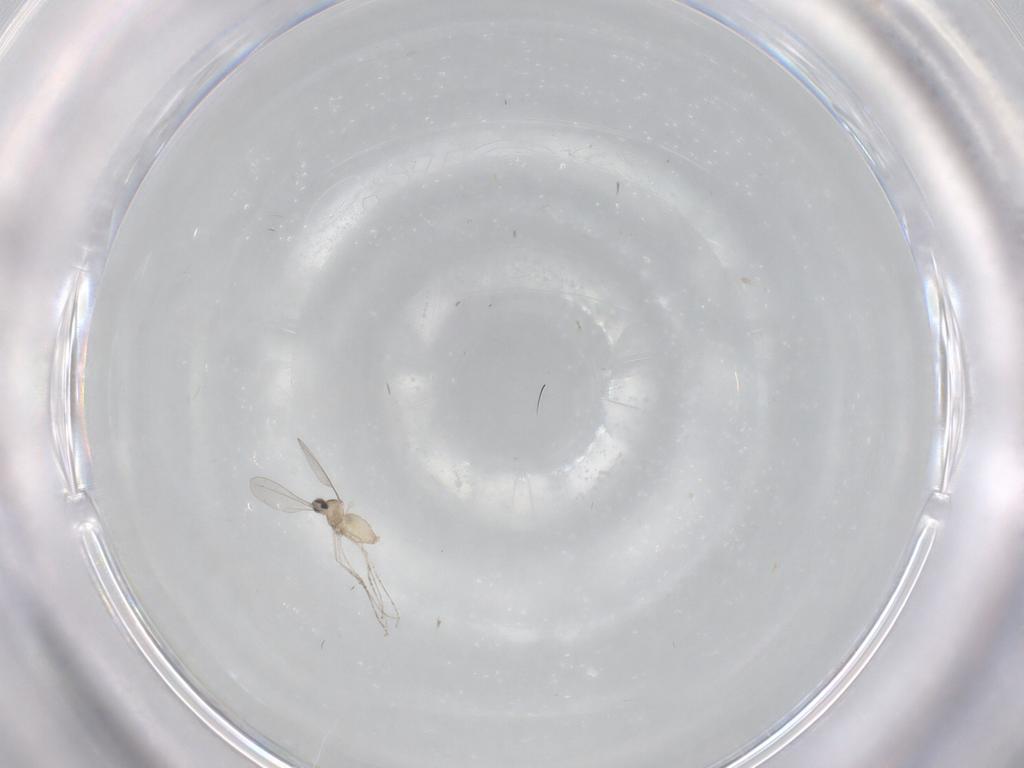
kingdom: Animalia
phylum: Arthropoda
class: Insecta
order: Diptera
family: Cecidomyiidae
